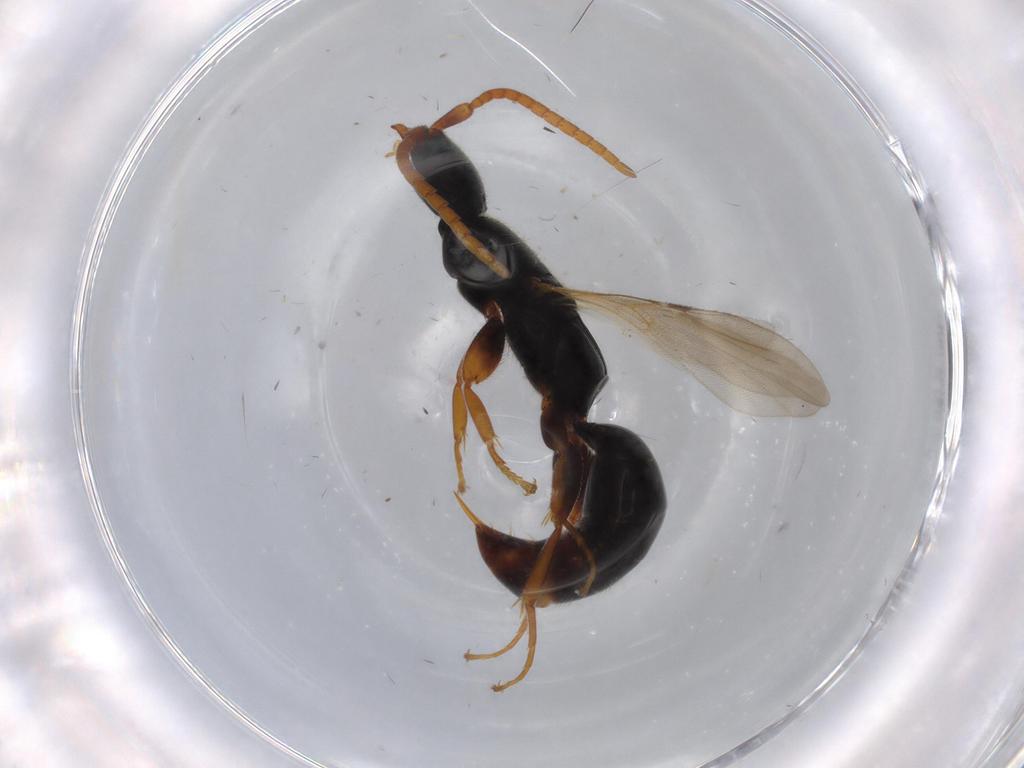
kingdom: Animalia
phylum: Arthropoda
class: Insecta
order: Hymenoptera
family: Bethylidae
